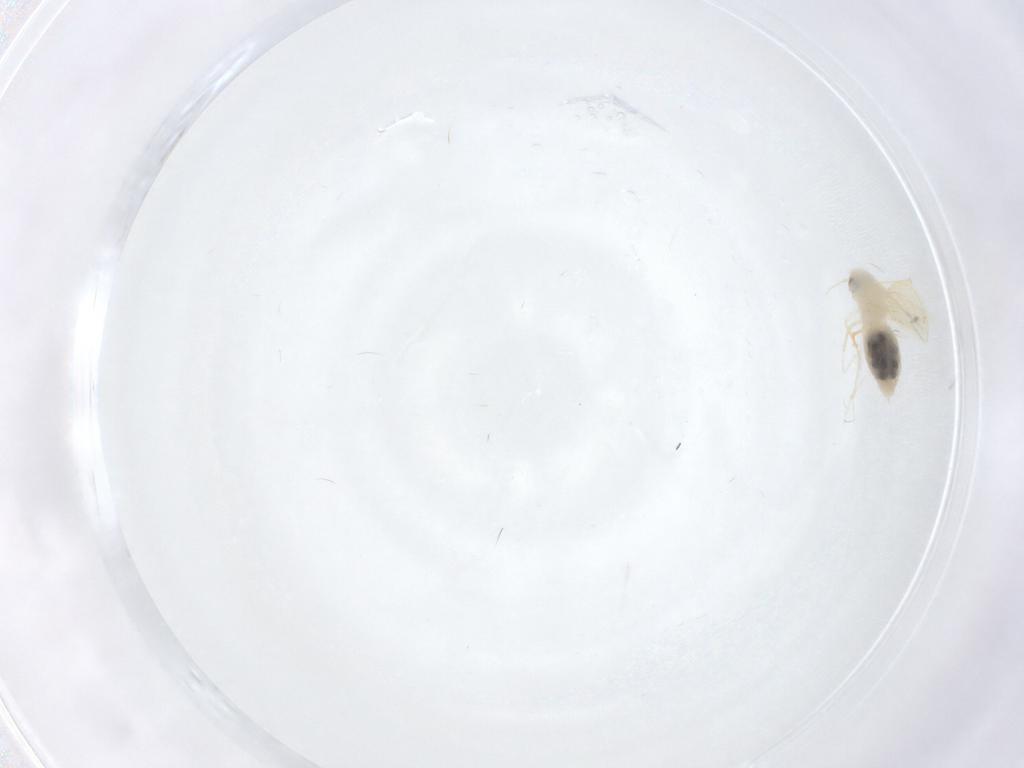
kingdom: Animalia
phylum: Arthropoda
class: Insecta
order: Hemiptera
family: Aleyrodidae
